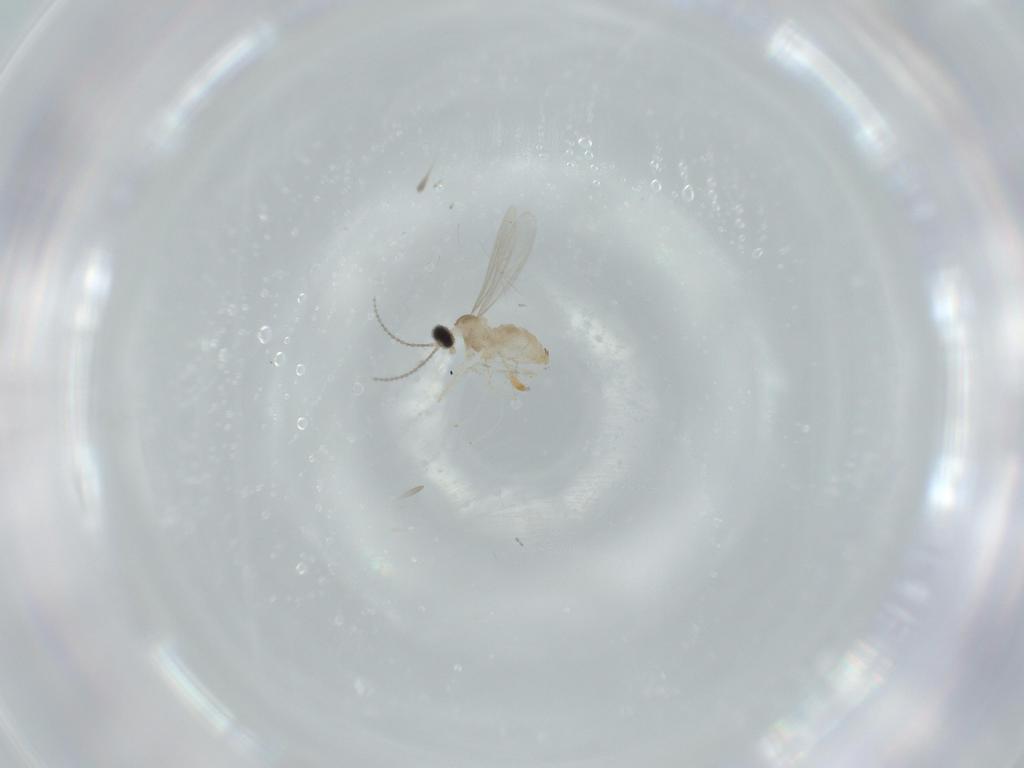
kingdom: Animalia
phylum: Arthropoda
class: Insecta
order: Diptera
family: Cecidomyiidae
